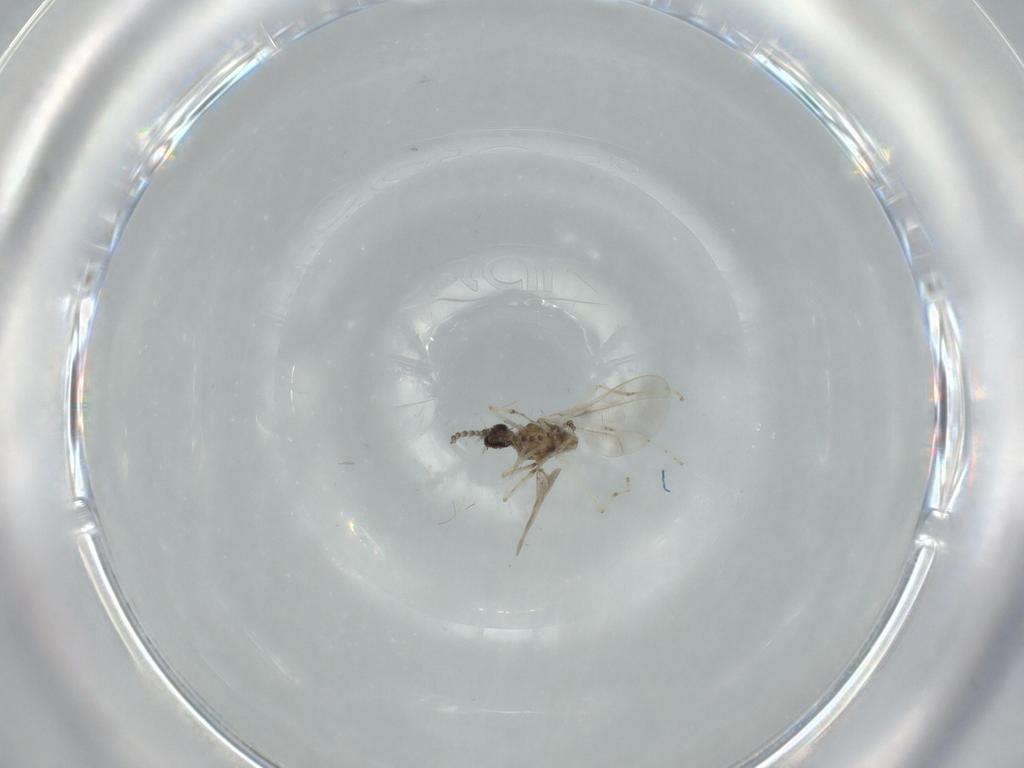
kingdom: Animalia
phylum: Arthropoda
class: Insecta
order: Diptera
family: Cecidomyiidae
